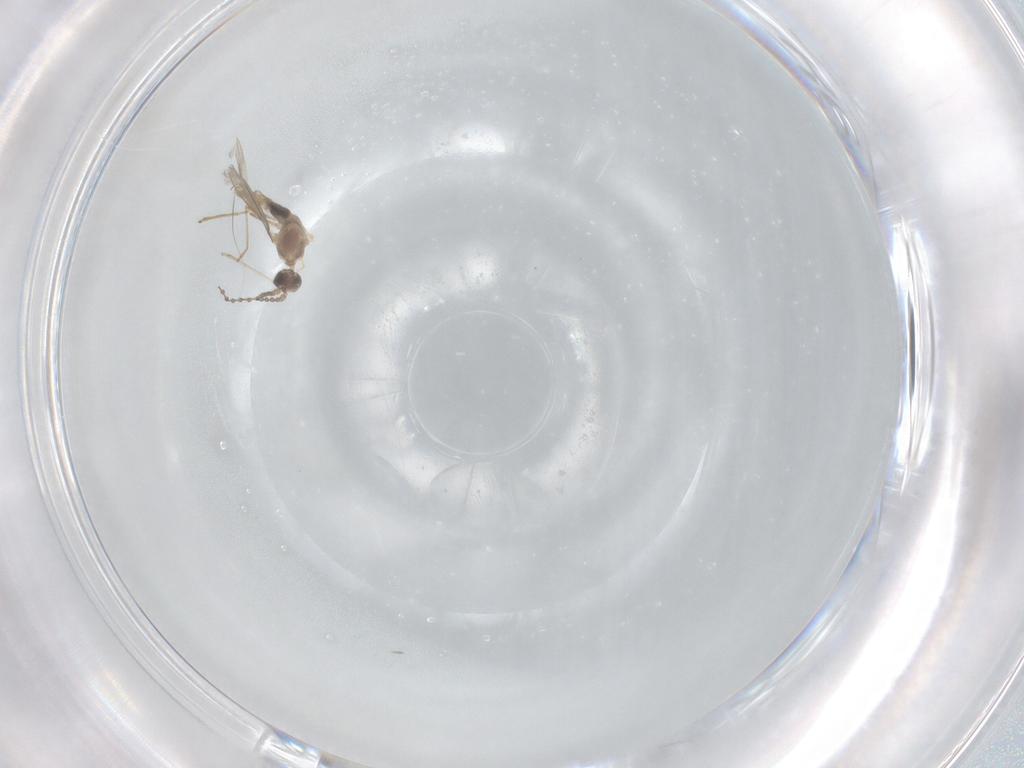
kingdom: Animalia
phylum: Arthropoda
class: Insecta
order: Diptera
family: Cecidomyiidae
